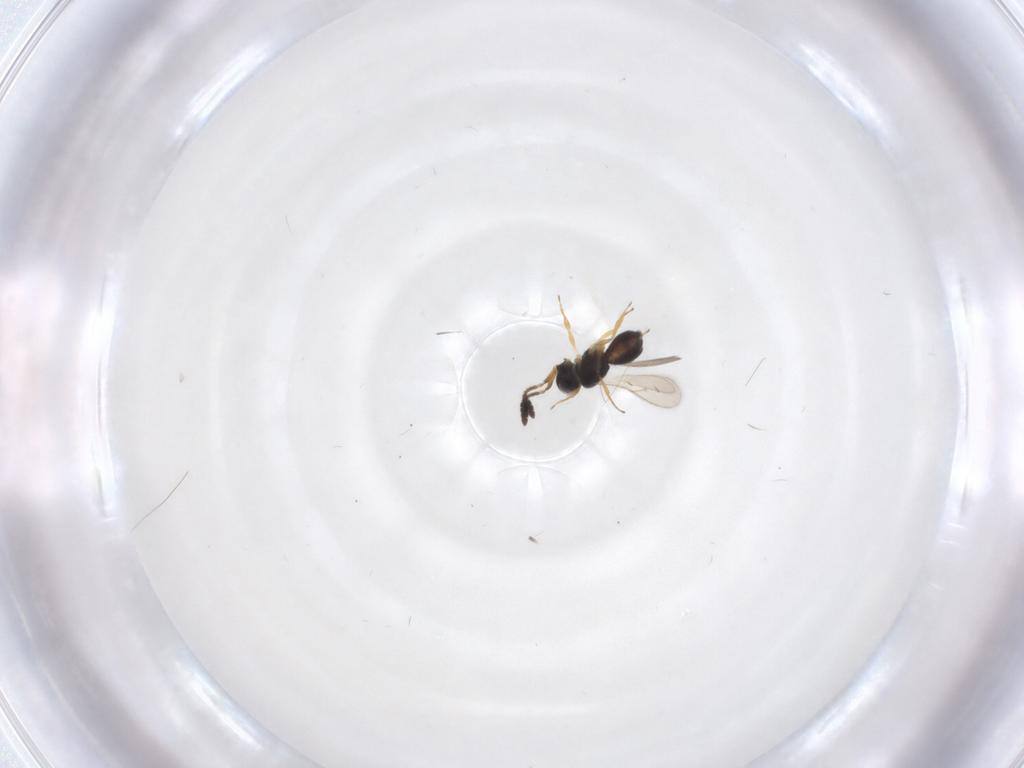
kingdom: Animalia
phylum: Arthropoda
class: Insecta
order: Hymenoptera
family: Scelionidae
